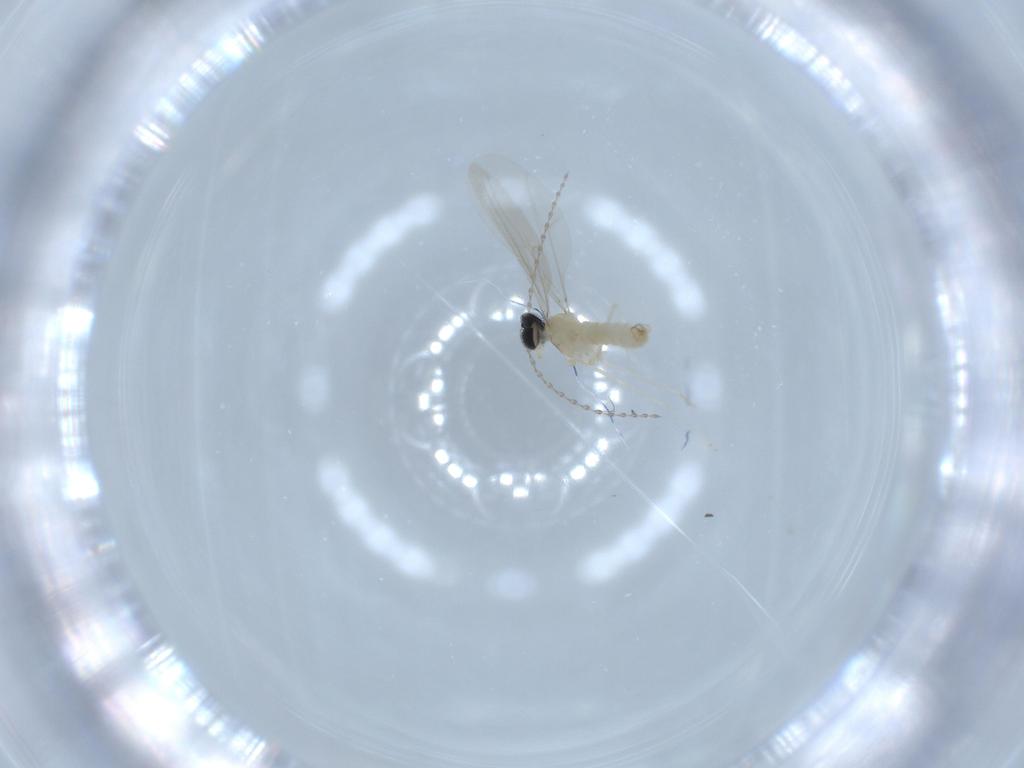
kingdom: Animalia
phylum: Arthropoda
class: Insecta
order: Diptera
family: Cecidomyiidae
